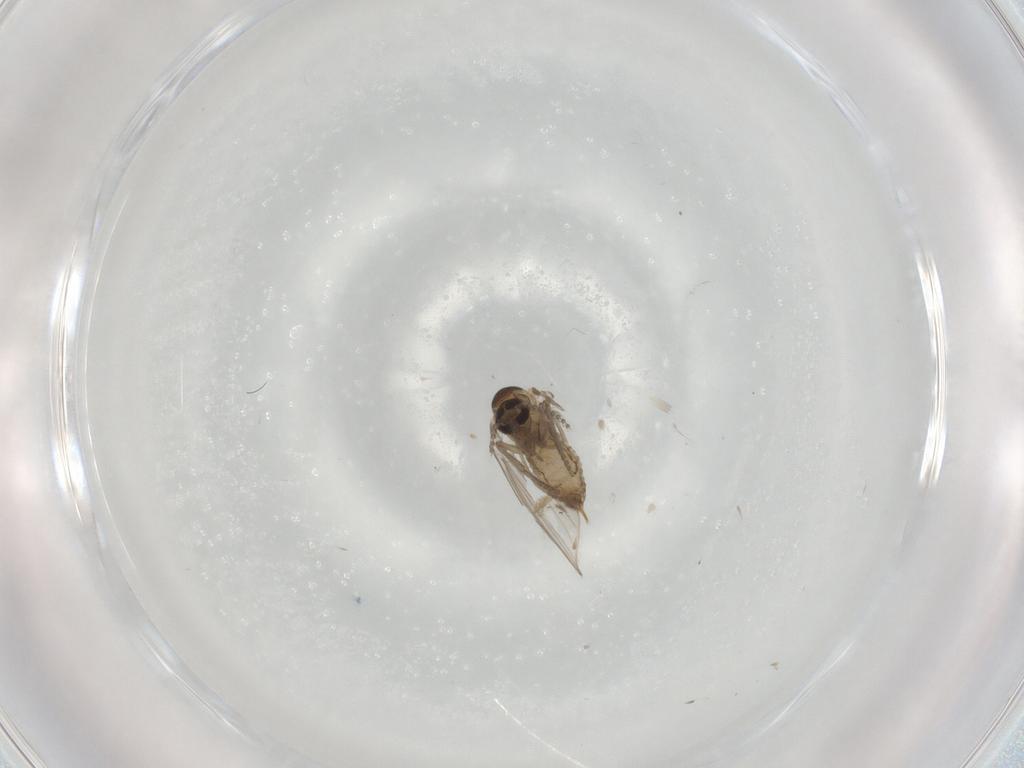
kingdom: Animalia
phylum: Arthropoda
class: Insecta
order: Diptera
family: Psychodidae
